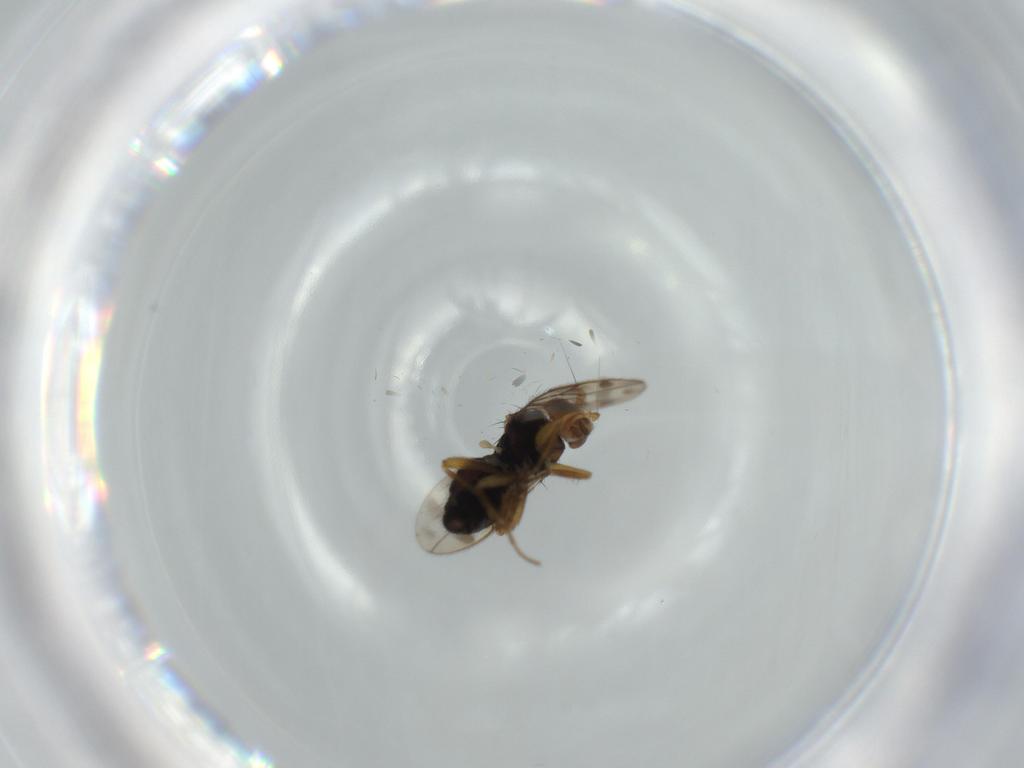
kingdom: Animalia
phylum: Arthropoda
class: Insecta
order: Diptera
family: Sphaeroceridae
